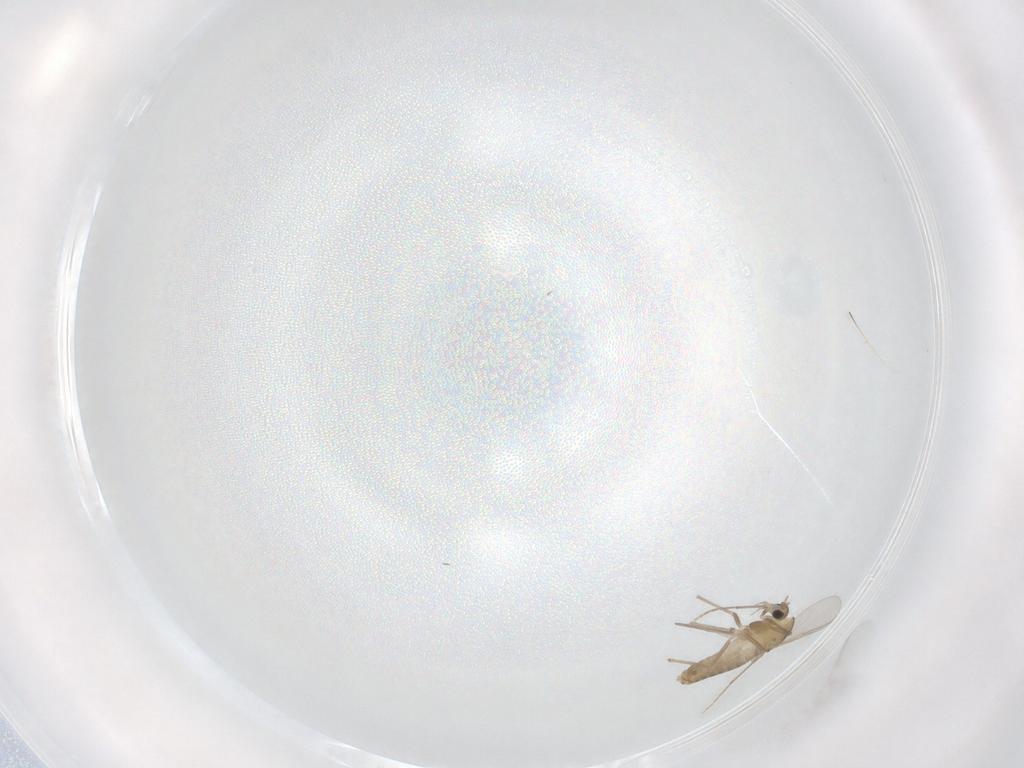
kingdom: Animalia
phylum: Arthropoda
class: Insecta
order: Diptera
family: Chironomidae
